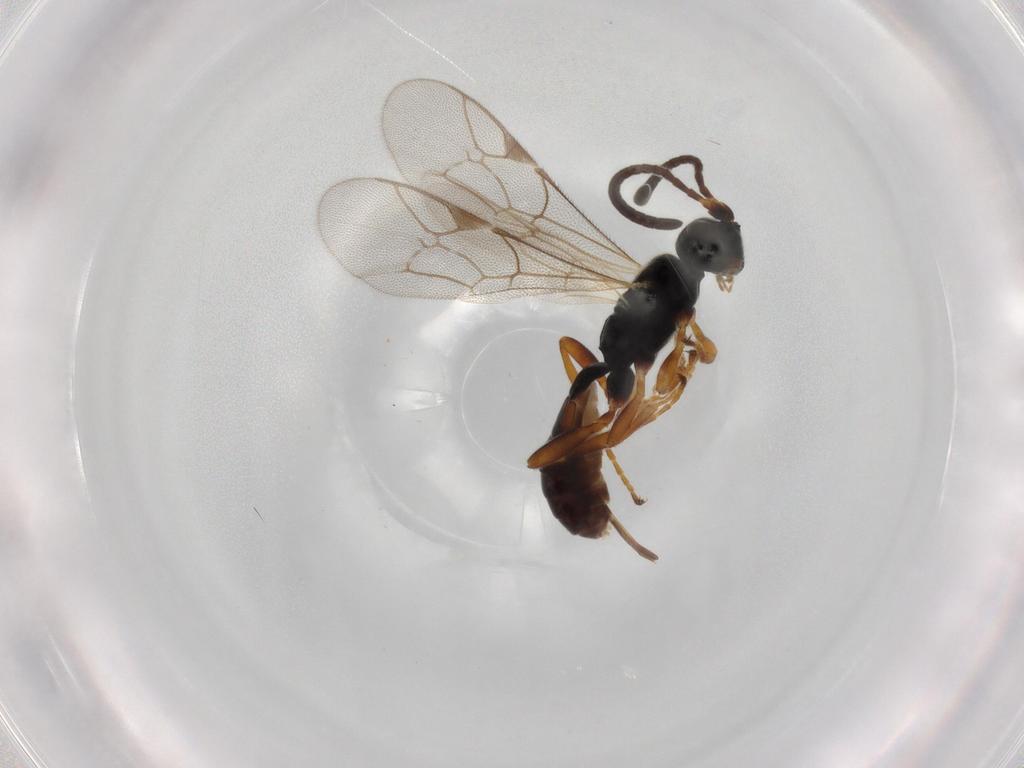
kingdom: Animalia
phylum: Arthropoda
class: Insecta
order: Hymenoptera
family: Ichneumonidae
